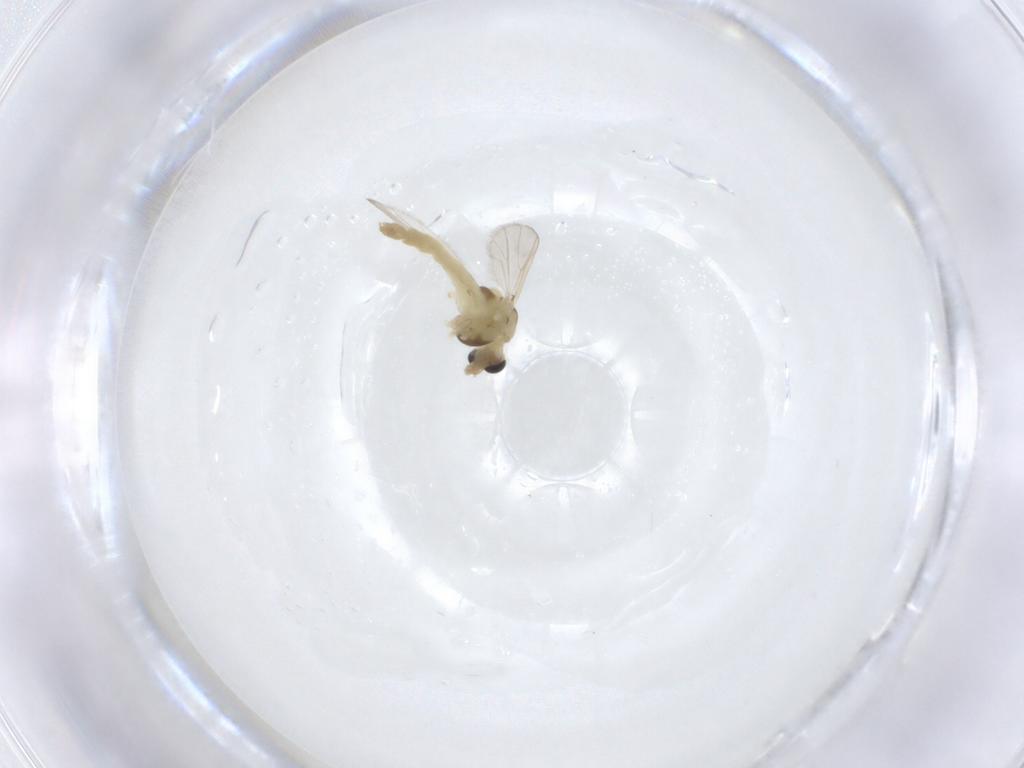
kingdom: Animalia
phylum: Arthropoda
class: Insecta
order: Diptera
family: Chironomidae
